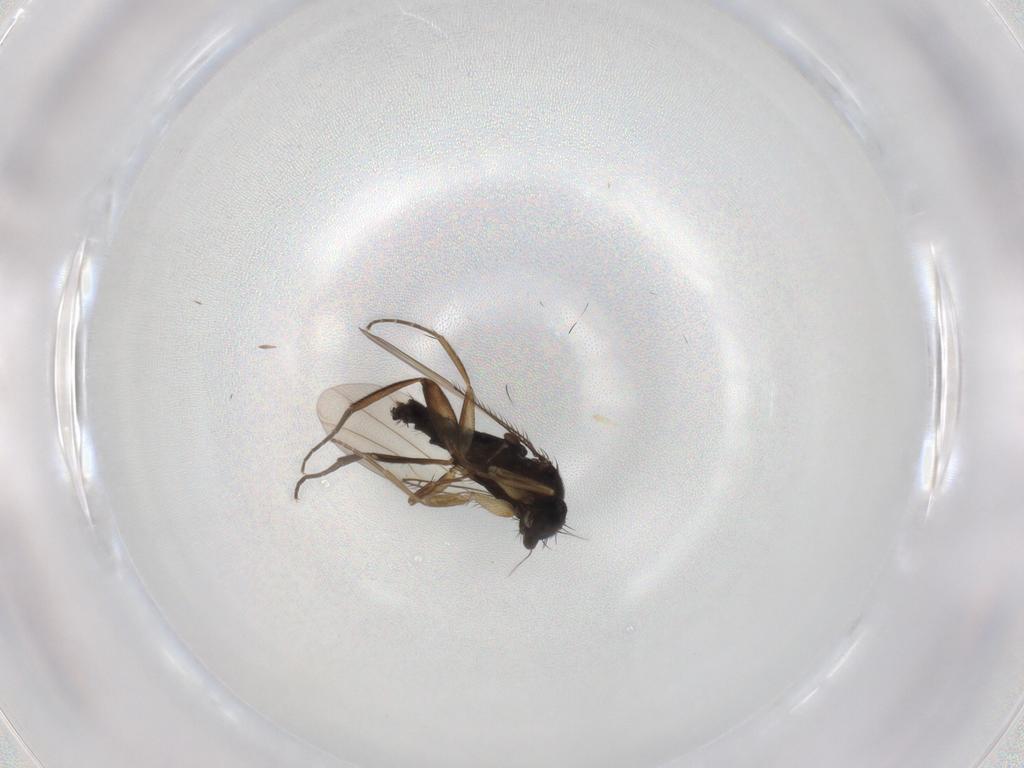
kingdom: Animalia
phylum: Arthropoda
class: Insecta
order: Diptera
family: Phoridae
